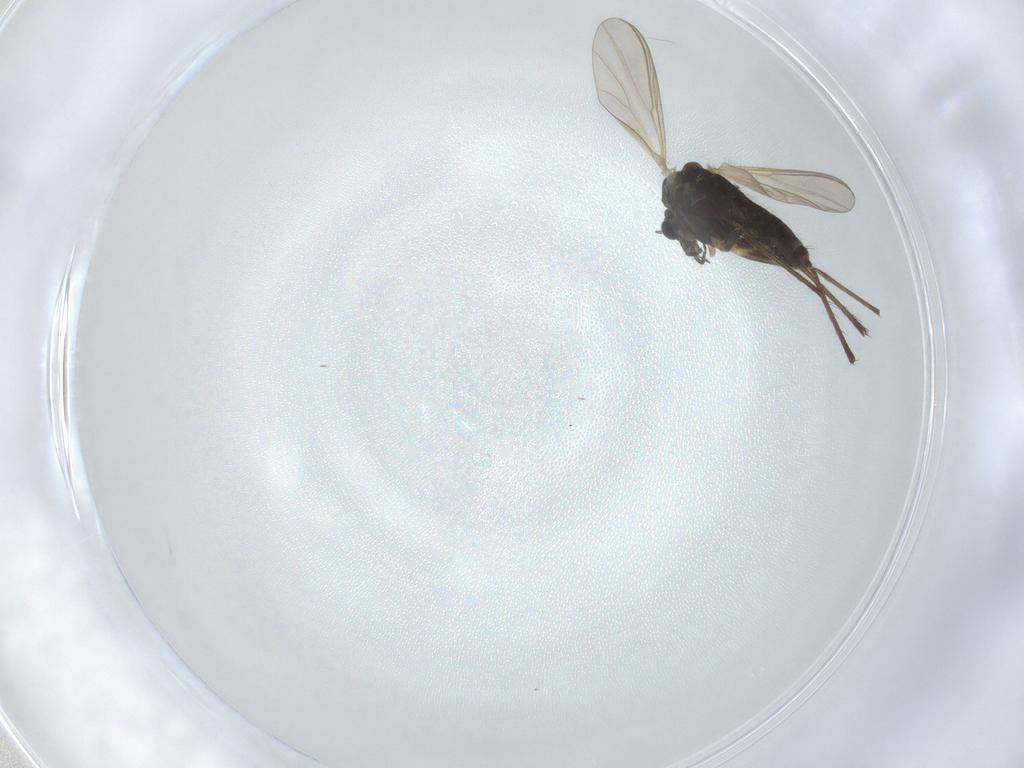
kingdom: Animalia
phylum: Arthropoda
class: Insecta
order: Diptera
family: Chironomidae
